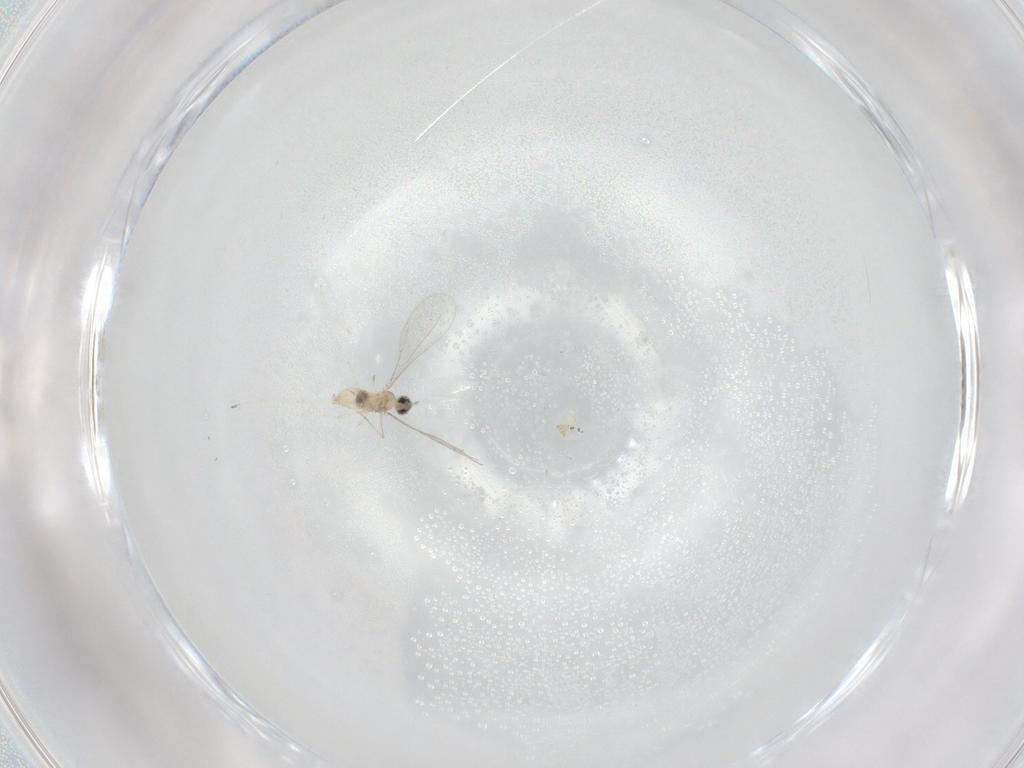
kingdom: Animalia
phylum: Arthropoda
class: Insecta
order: Diptera
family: Cecidomyiidae
